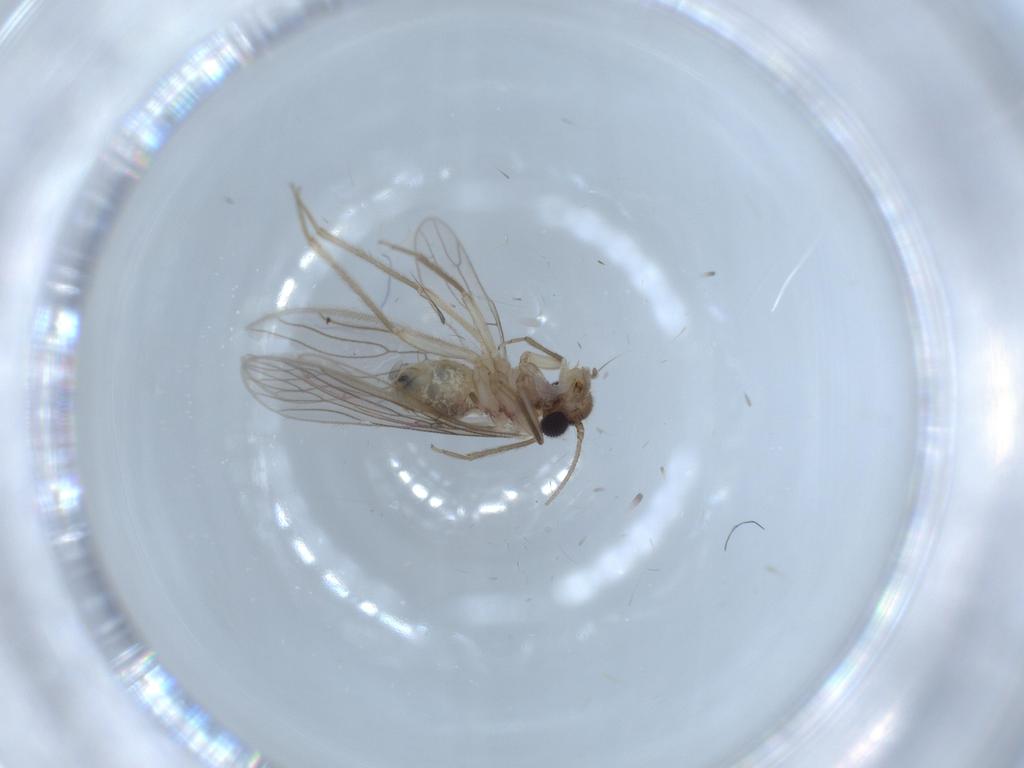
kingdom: Animalia
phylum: Arthropoda
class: Insecta
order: Psocodea
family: Cladiopsocidae
